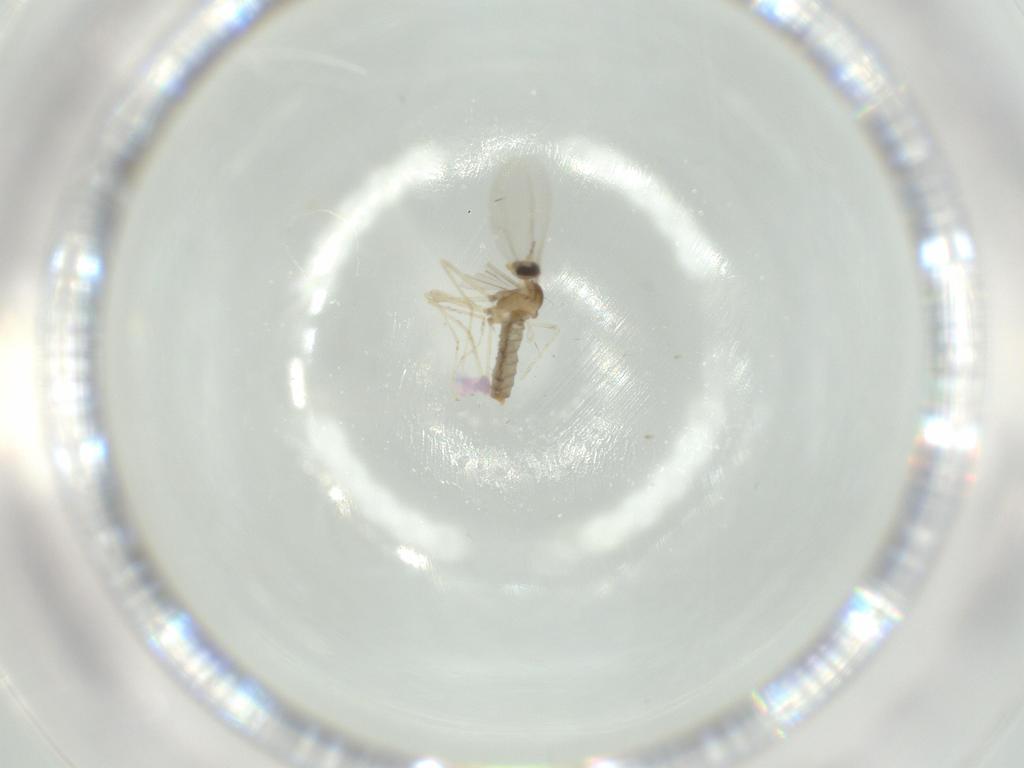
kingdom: Animalia
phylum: Arthropoda
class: Insecta
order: Diptera
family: Cecidomyiidae
